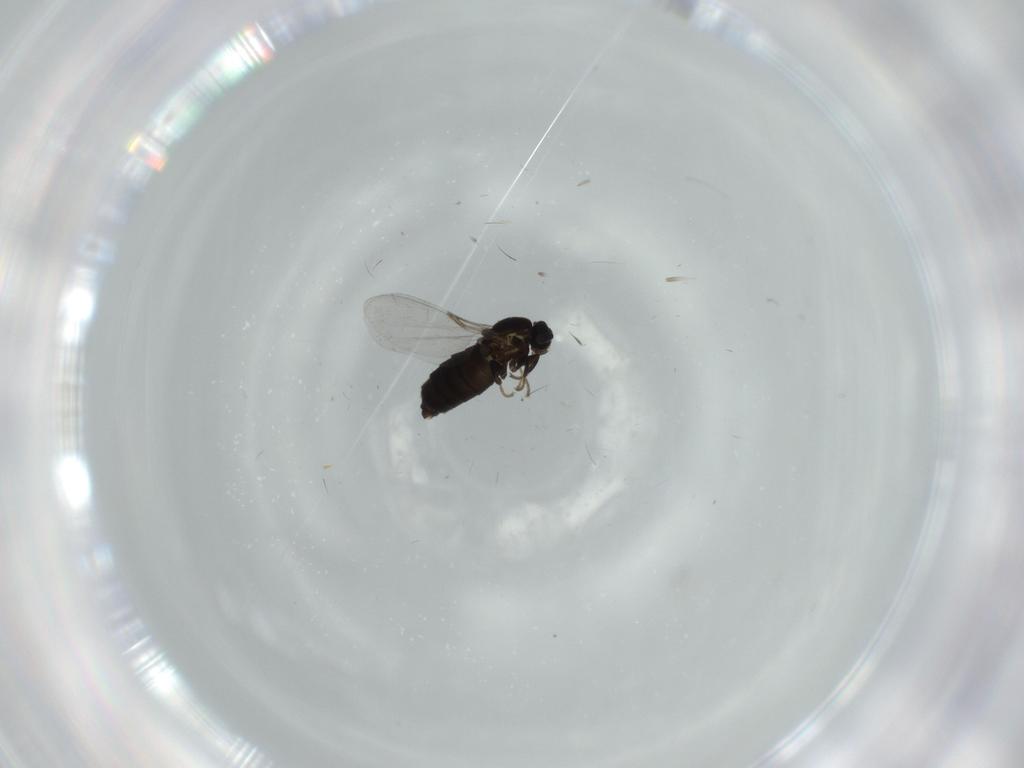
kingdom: Animalia
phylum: Arthropoda
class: Insecta
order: Diptera
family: Scatopsidae
